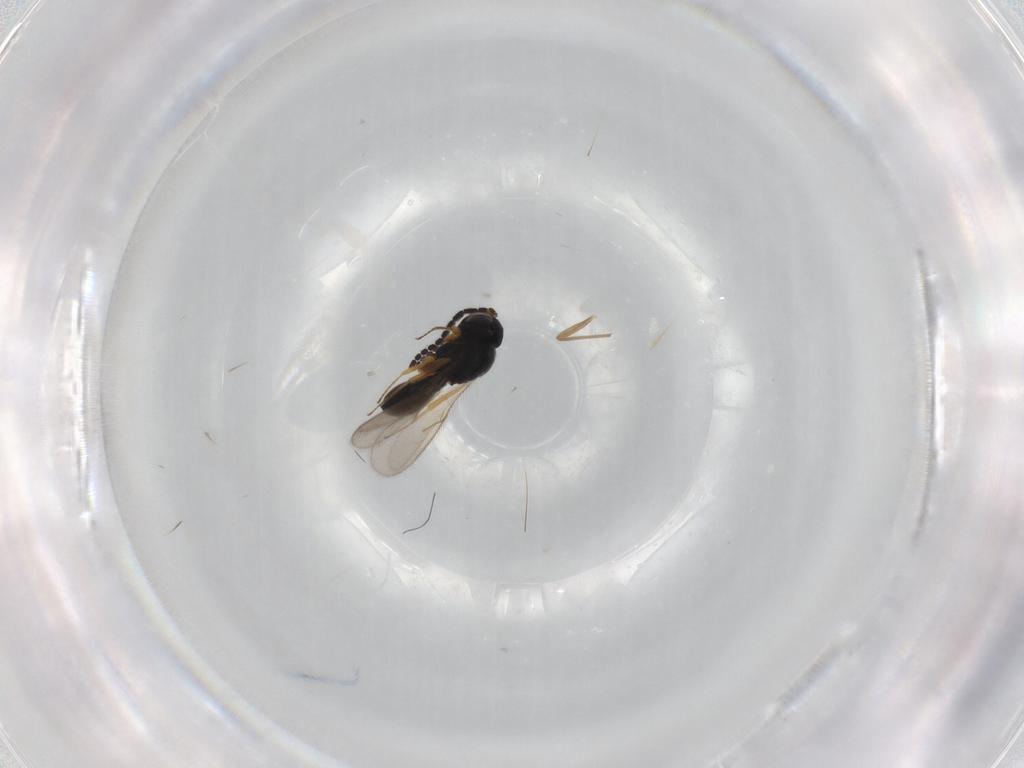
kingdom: Animalia
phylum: Arthropoda
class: Insecta
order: Hymenoptera
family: Scelionidae
